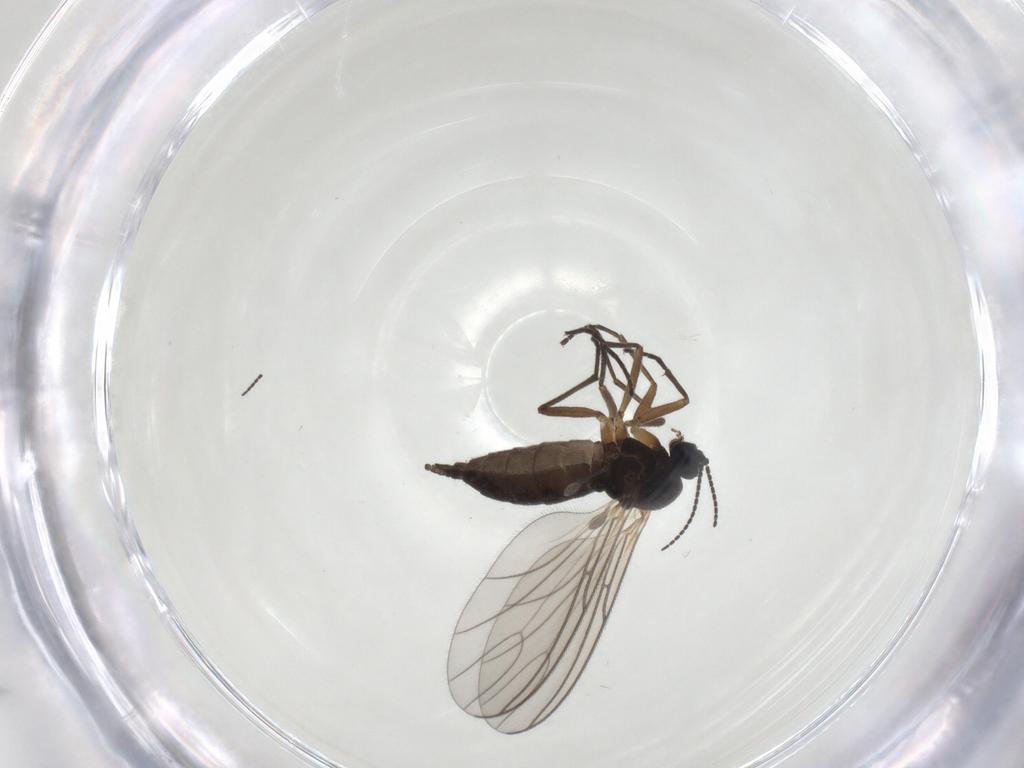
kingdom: Animalia
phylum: Arthropoda
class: Insecta
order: Diptera
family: Sciaridae
